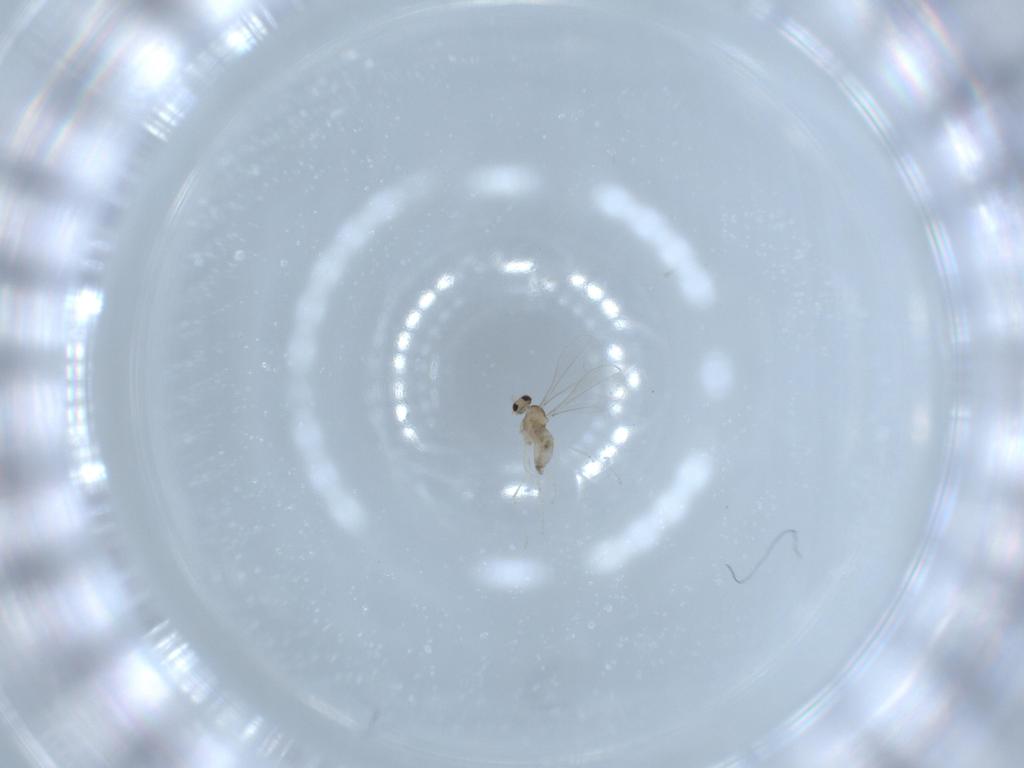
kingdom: Animalia
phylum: Arthropoda
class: Insecta
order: Diptera
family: Cecidomyiidae
